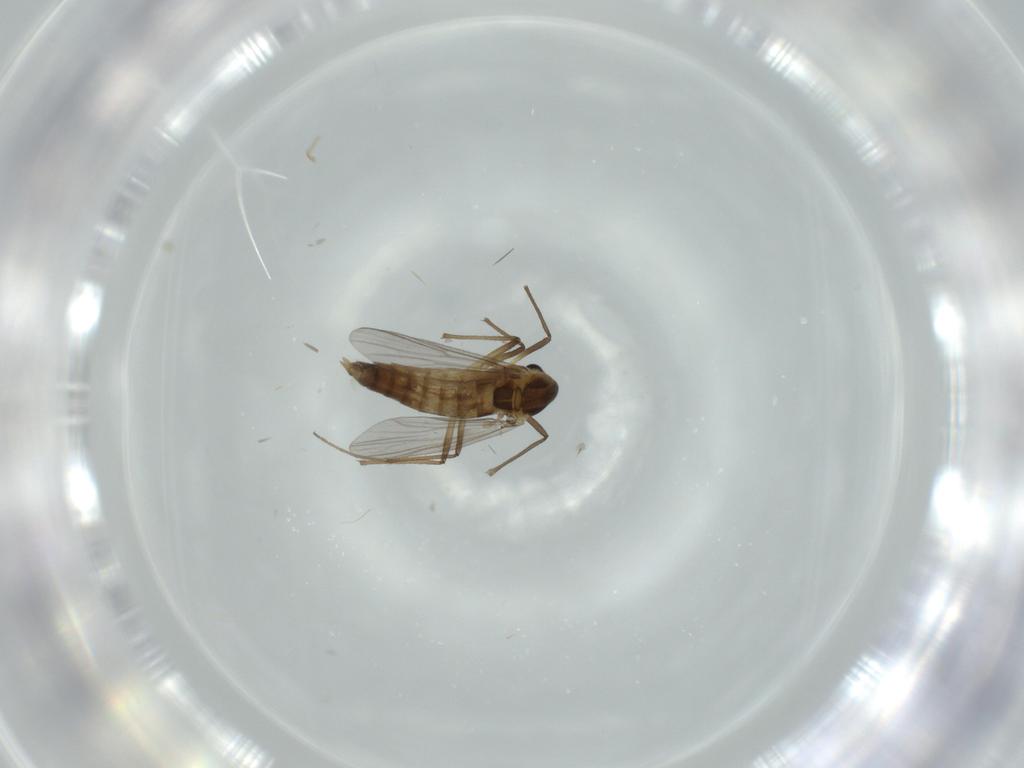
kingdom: Animalia
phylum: Arthropoda
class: Insecta
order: Diptera
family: Chironomidae
